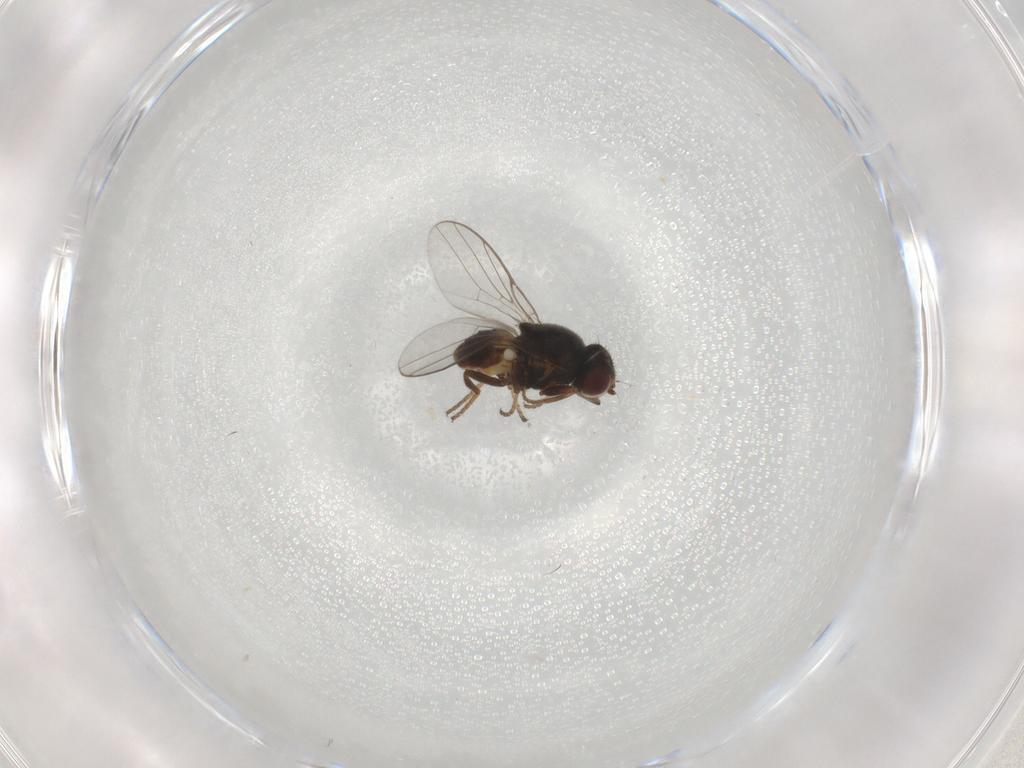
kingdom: Animalia
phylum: Arthropoda
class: Insecta
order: Diptera
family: Chloropidae
